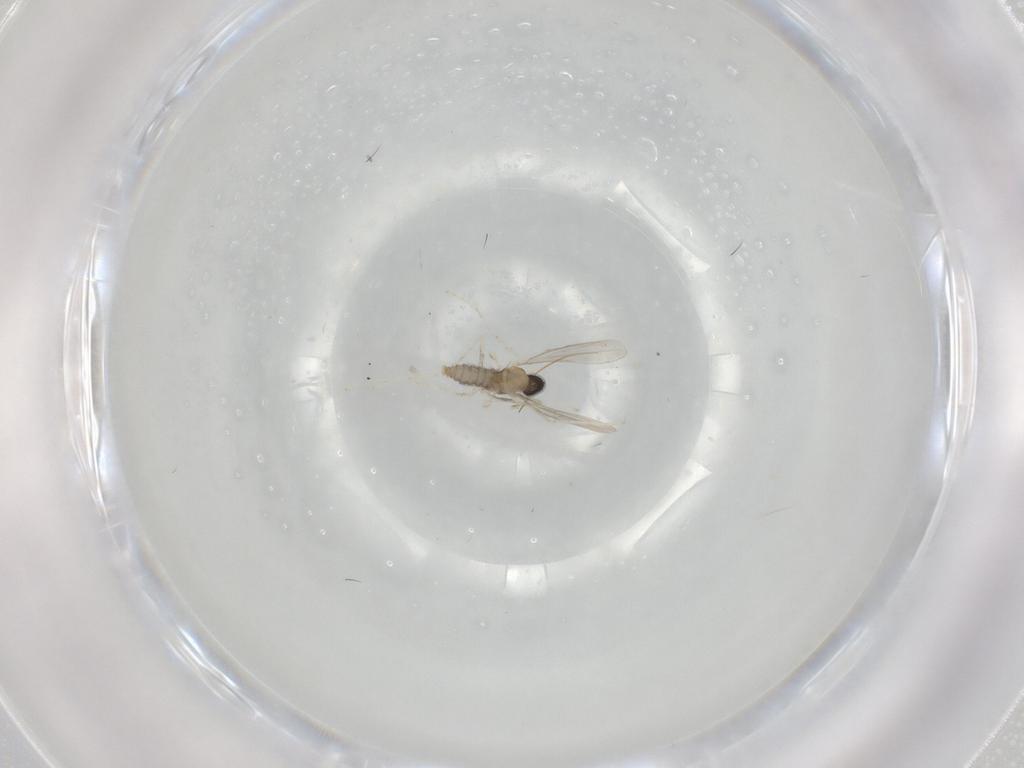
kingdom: Animalia
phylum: Arthropoda
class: Insecta
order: Diptera
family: Cecidomyiidae
